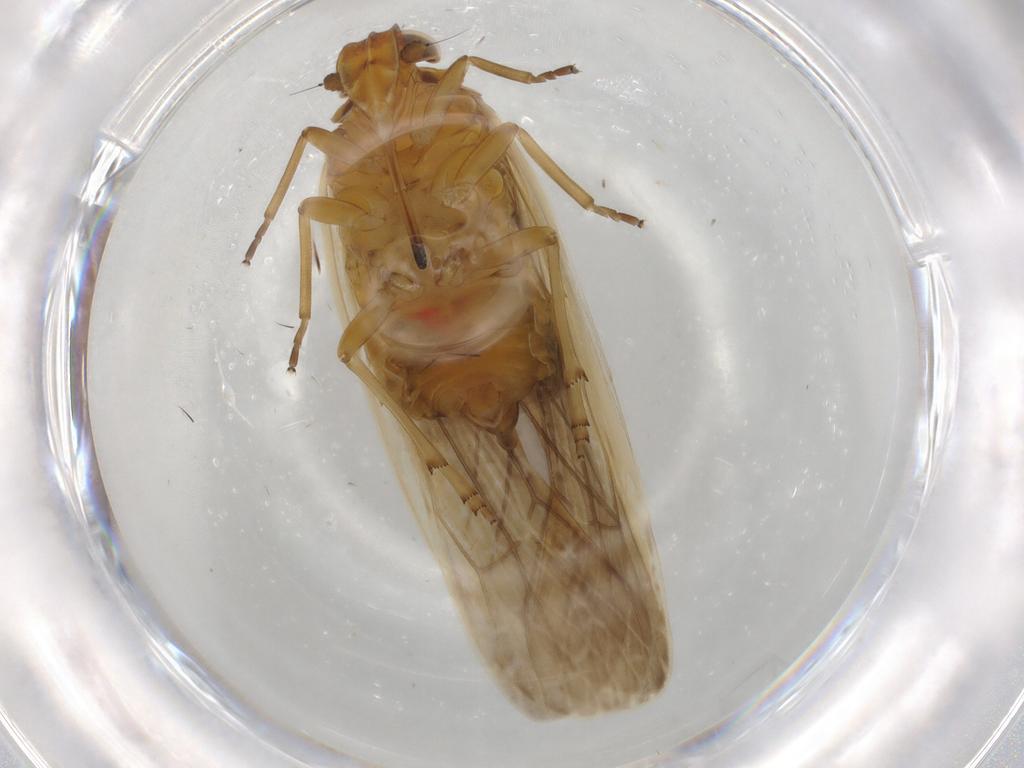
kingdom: Animalia
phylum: Arthropoda
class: Insecta
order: Hemiptera
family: Achilidae
